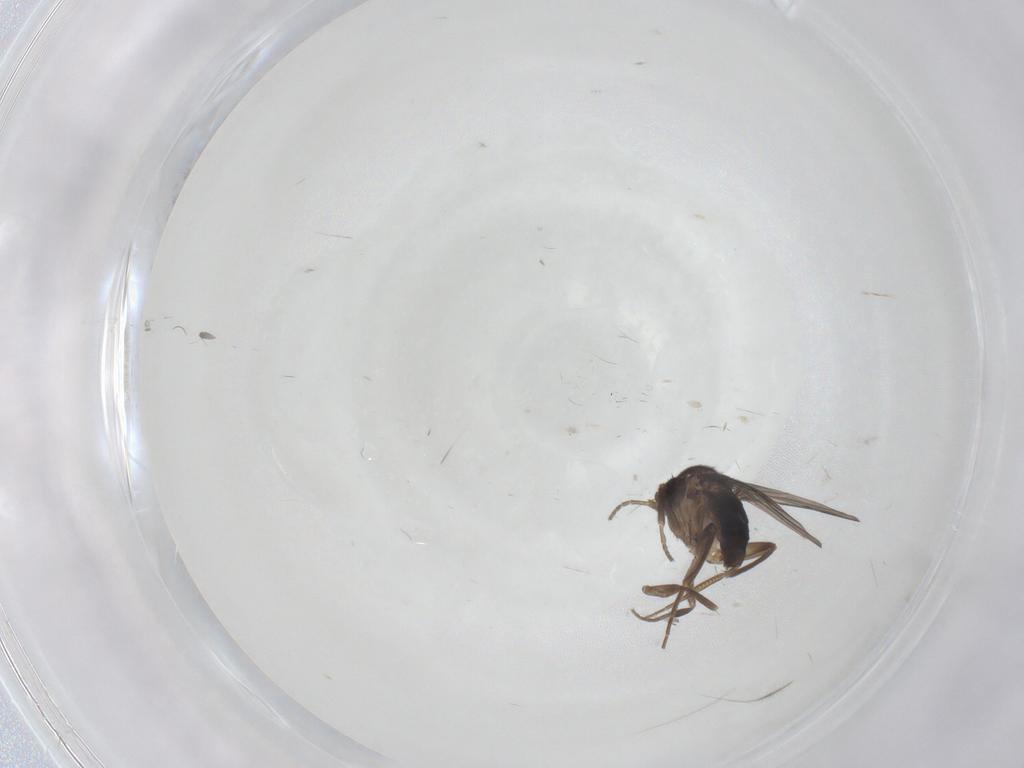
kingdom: Animalia
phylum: Arthropoda
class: Insecta
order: Diptera
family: Phoridae
